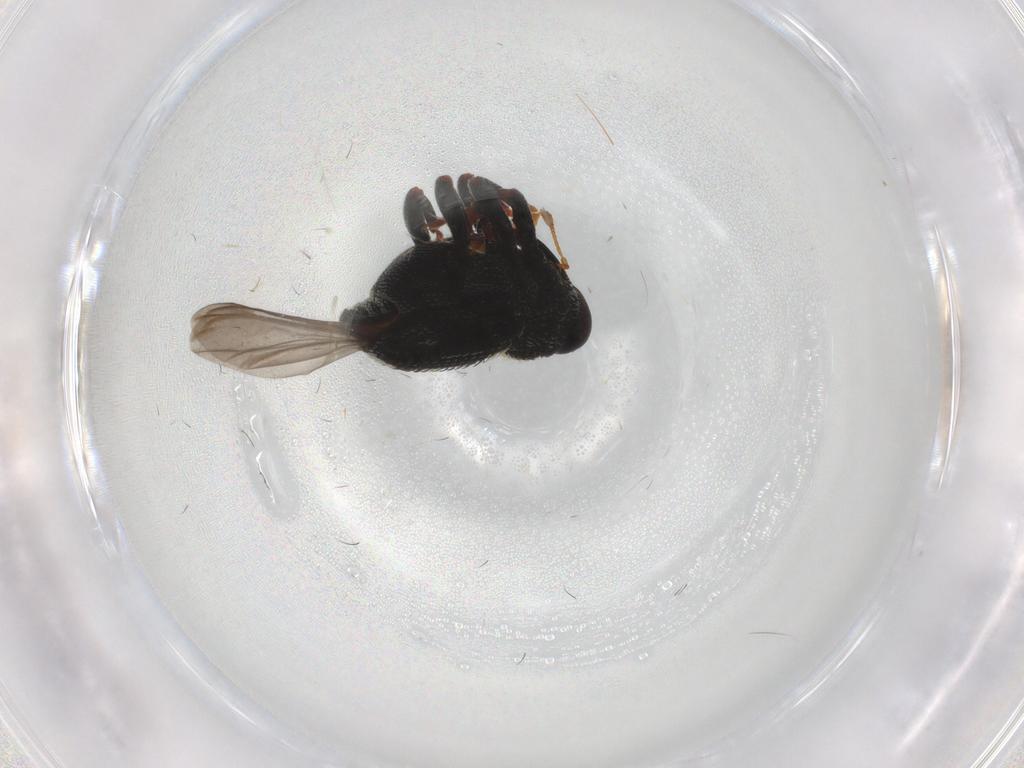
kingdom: Animalia
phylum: Arthropoda
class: Insecta
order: Coleoptera
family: Curculionidae
